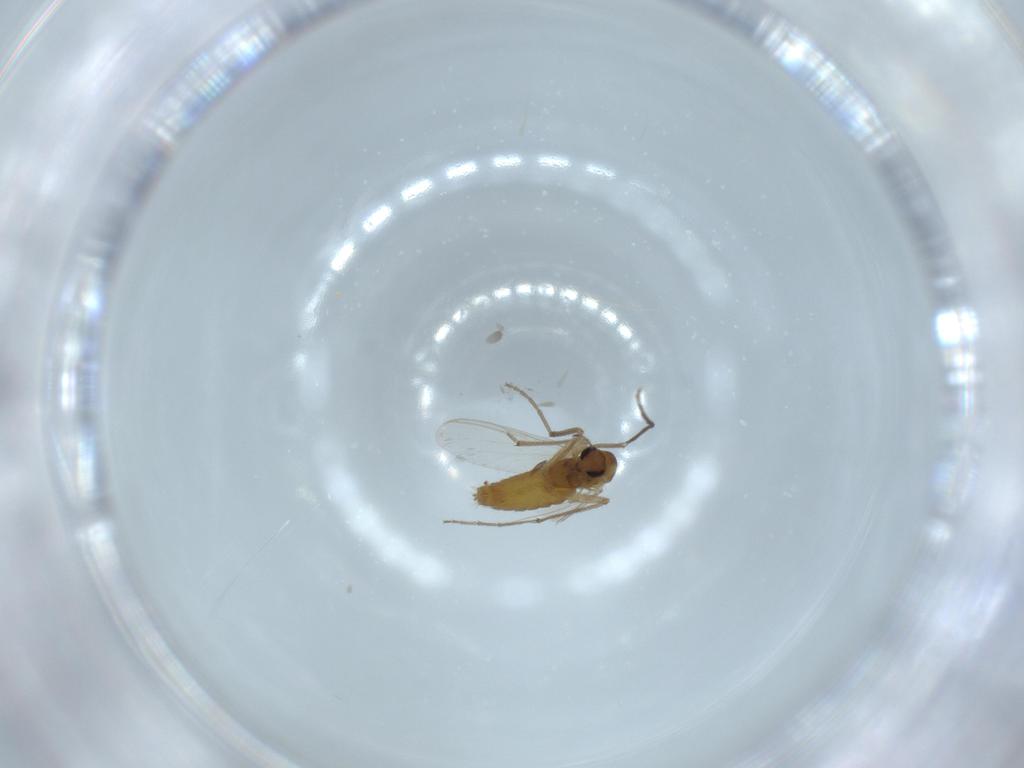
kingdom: Animalia
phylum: Arthropoda
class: Insecta
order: Diptera
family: Chironomidae
